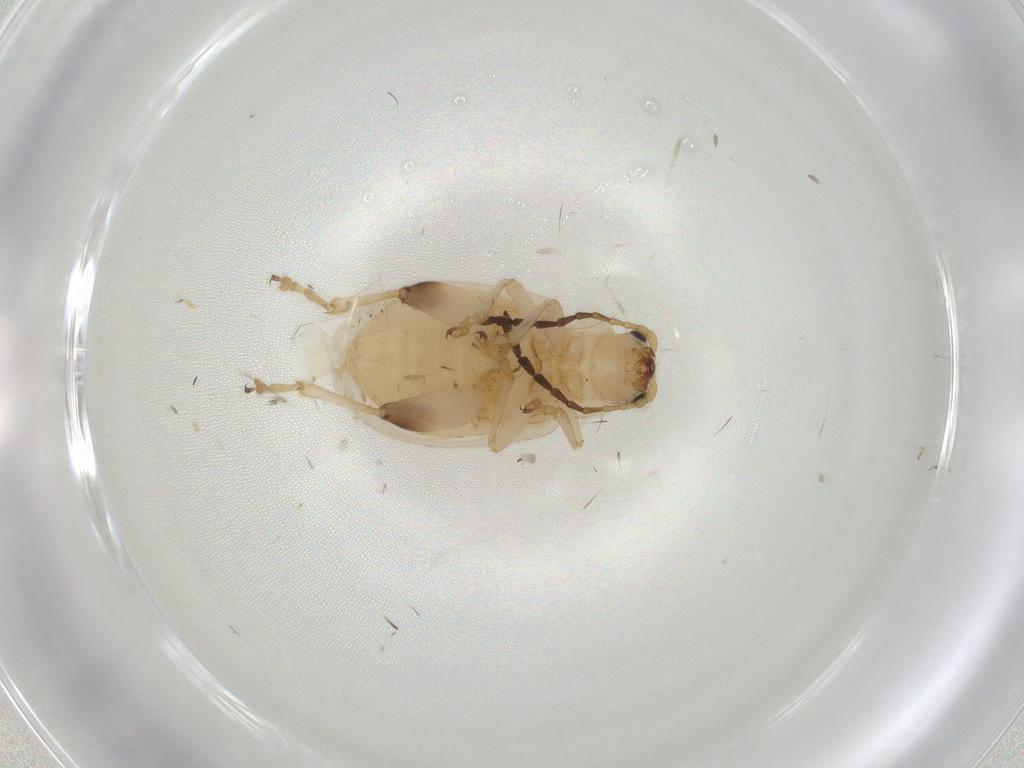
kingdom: Animalia
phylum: Arthropoda
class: Insecta
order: Coleoptera
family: Chrysomelidae
